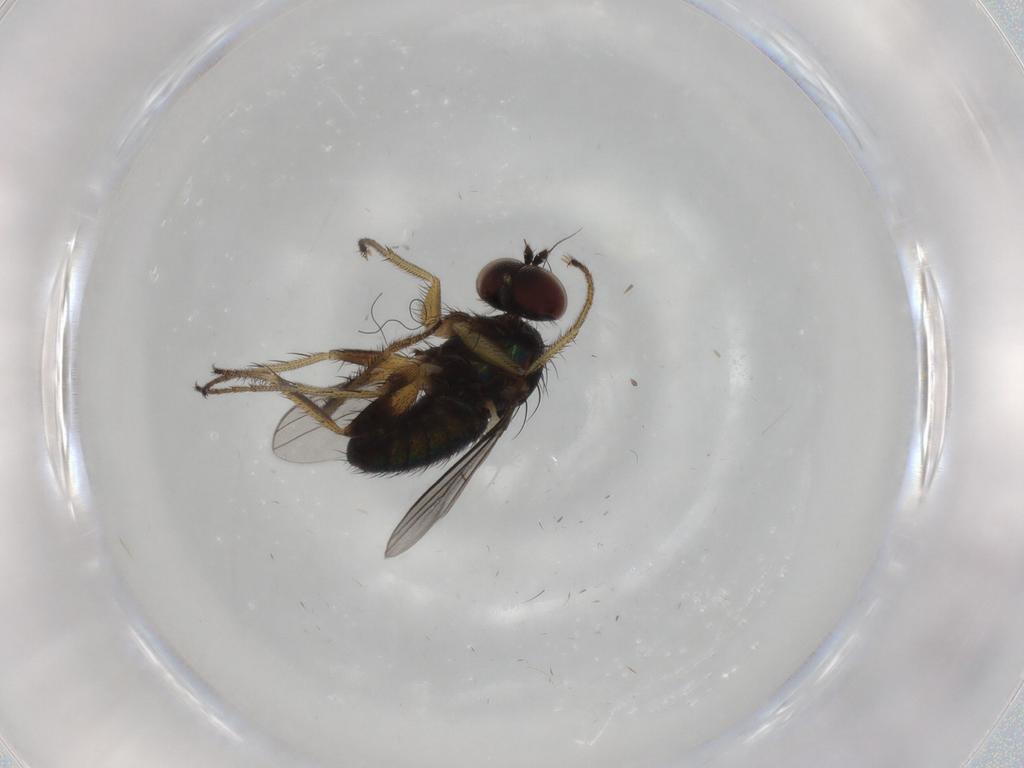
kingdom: Animalia
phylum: Arthropoda
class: Insecta
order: Diptera
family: Dolichopodidae
